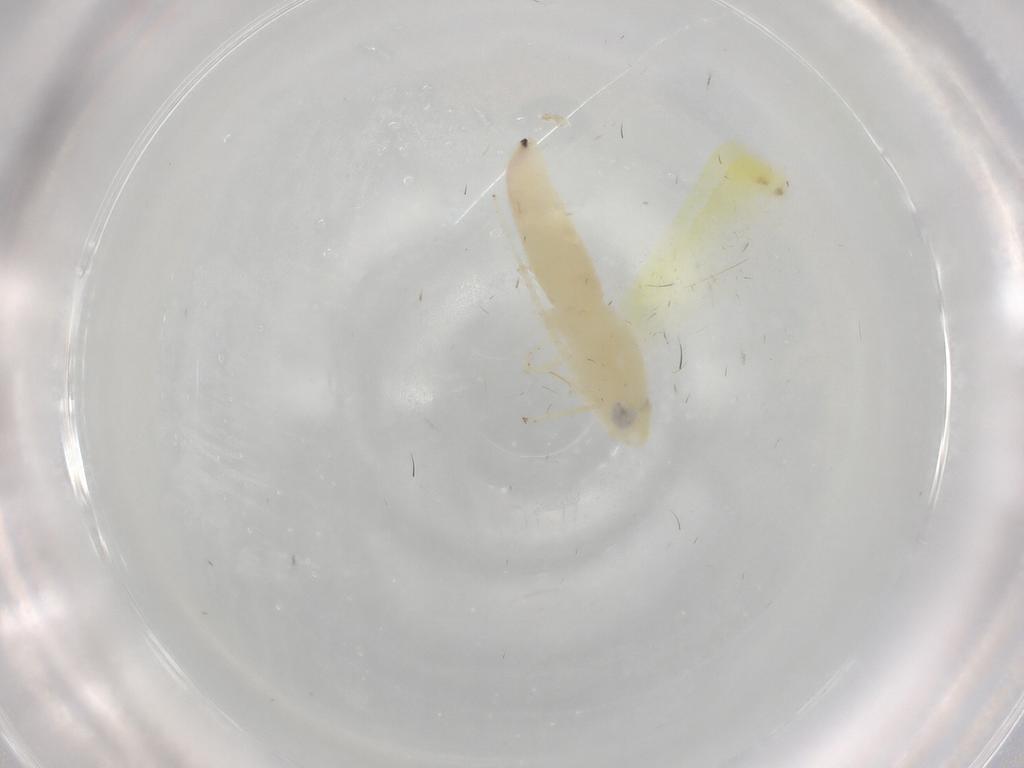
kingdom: Animalia
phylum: Arthropoda
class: Insecta
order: Hemiptera
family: Cicadellidae
